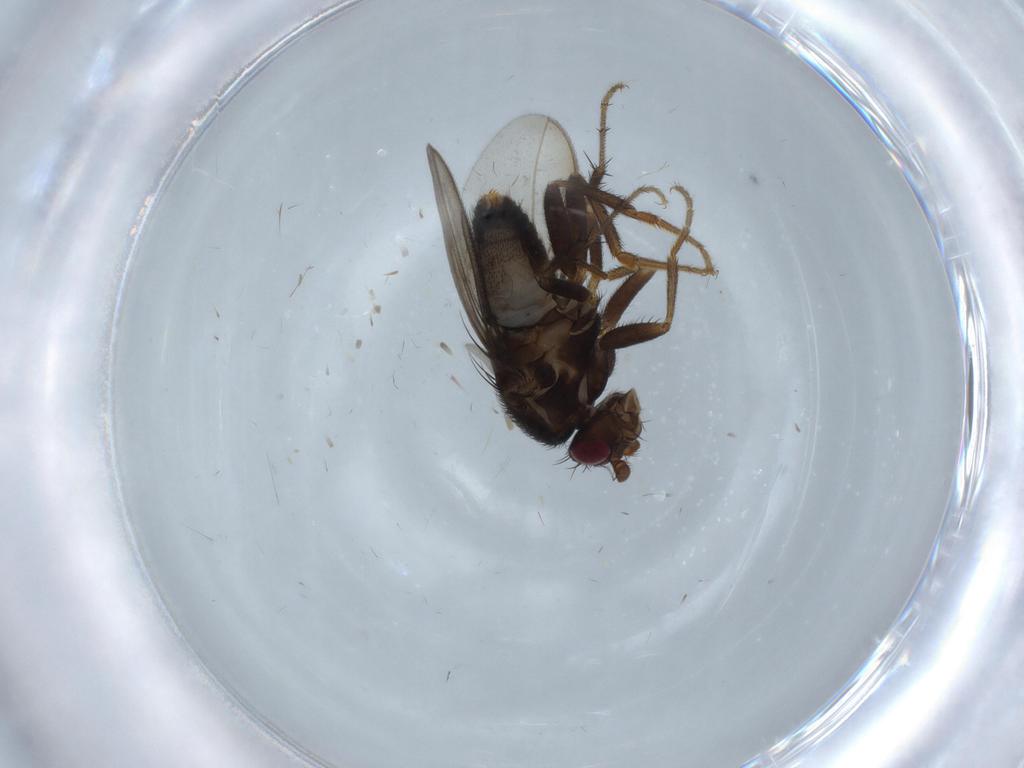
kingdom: Animalia
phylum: Arthropoda
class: Insecta
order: Diptera
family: Sphaeroceridae
